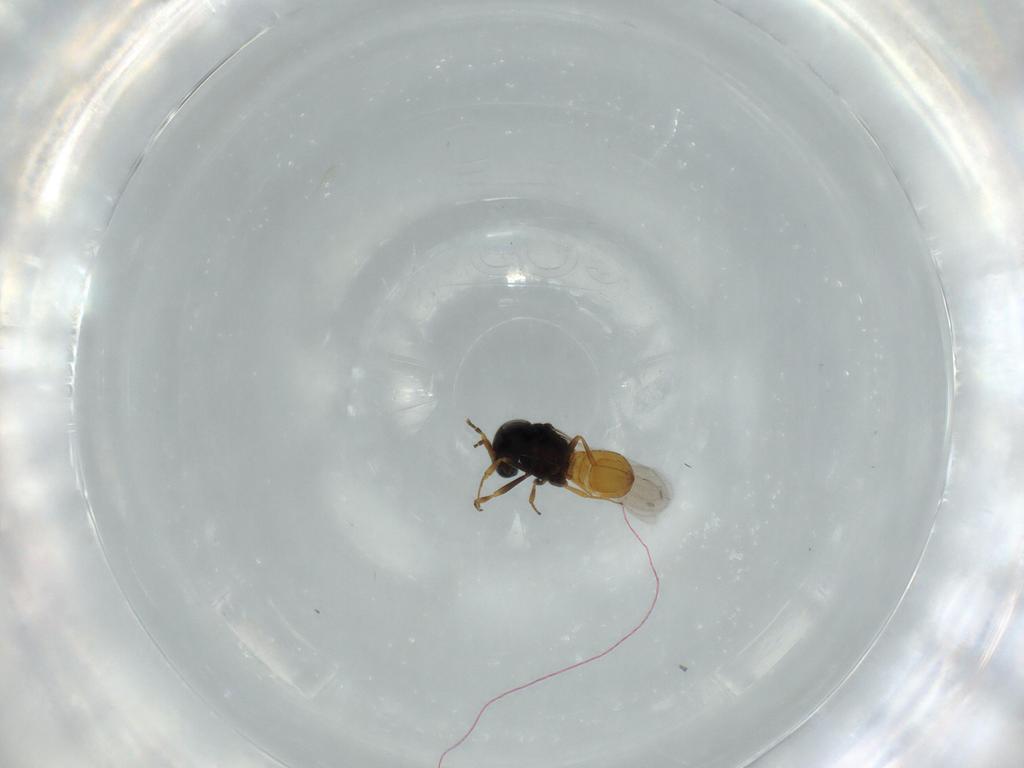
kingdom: Animalia
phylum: Arthropoda
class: Insecta
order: Hymenoptera
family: Scelionidae
